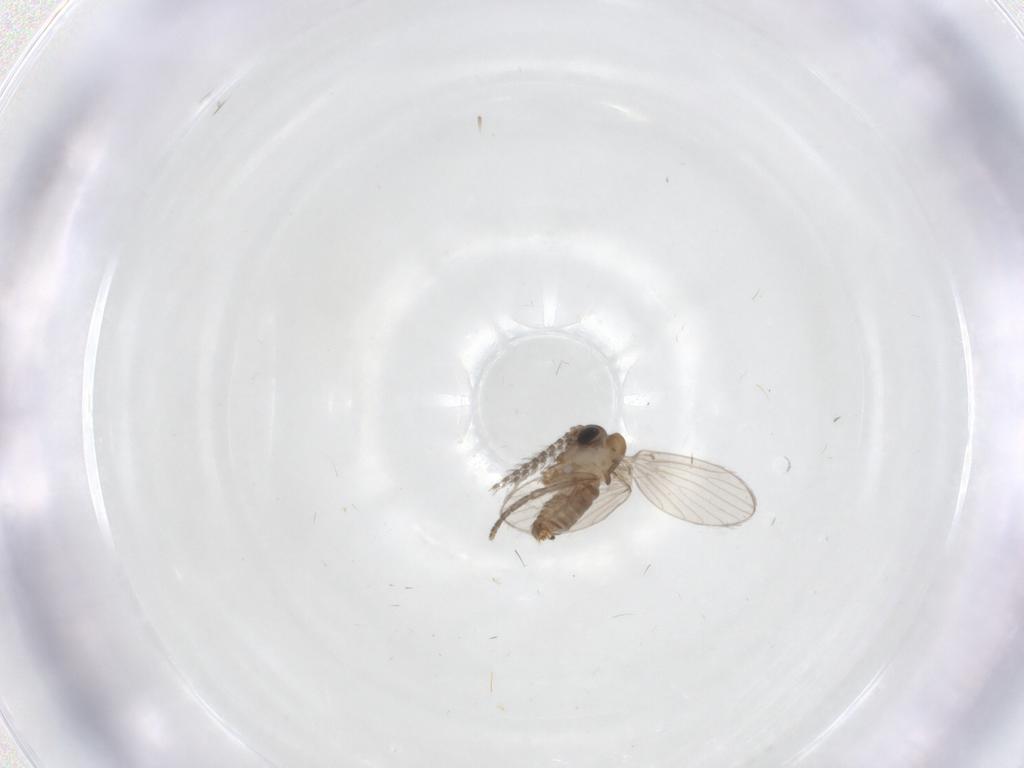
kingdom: Animalia
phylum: Arthropoda
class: Insecta
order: Diptera
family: Psychodidae
